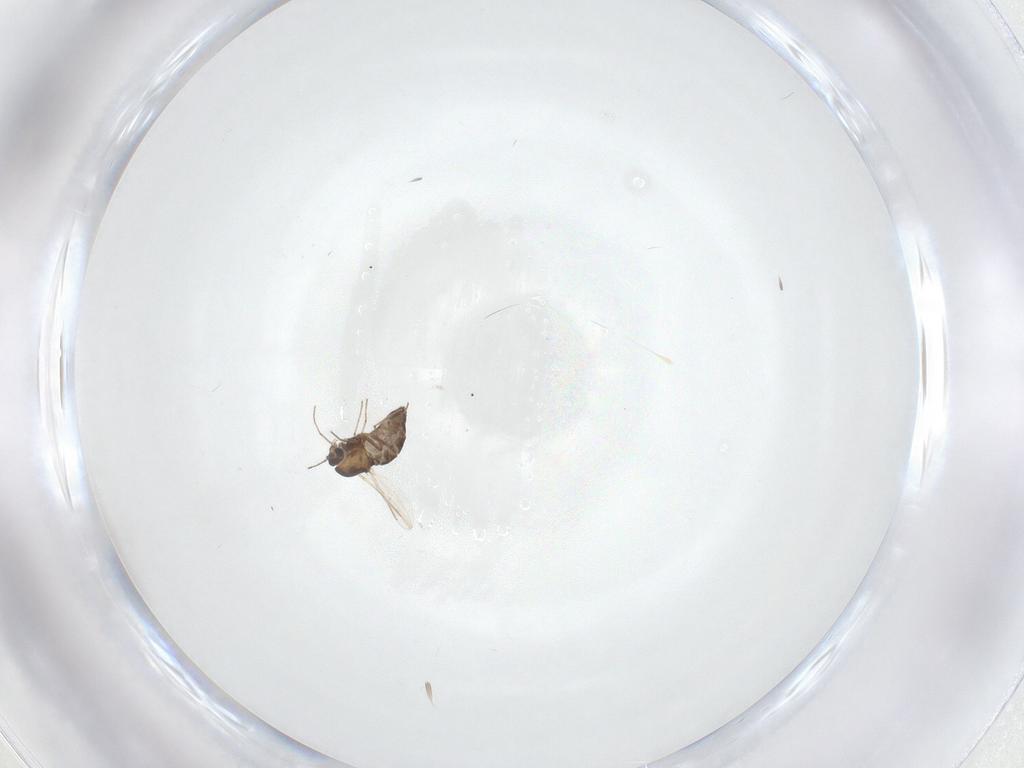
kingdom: Animalia
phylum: Arthropoda
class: Insecta
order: Diptera
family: Chironomidae
